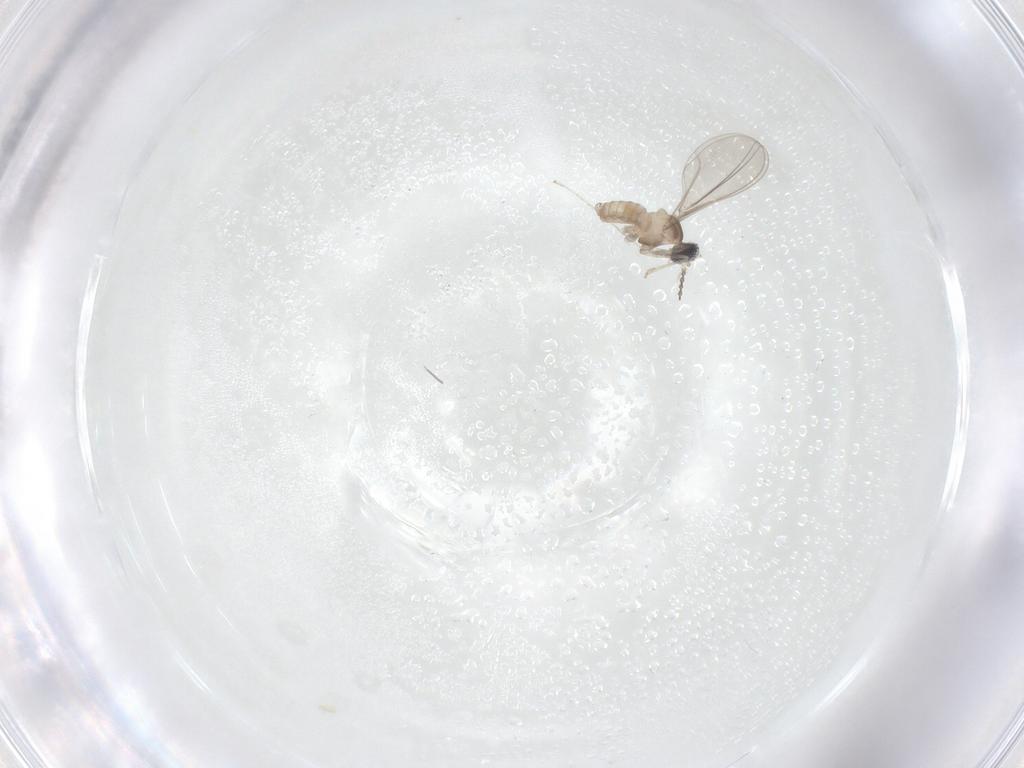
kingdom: Animalia
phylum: Arthropoda
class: Insecta
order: Diptera
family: Cecidomyiidae
